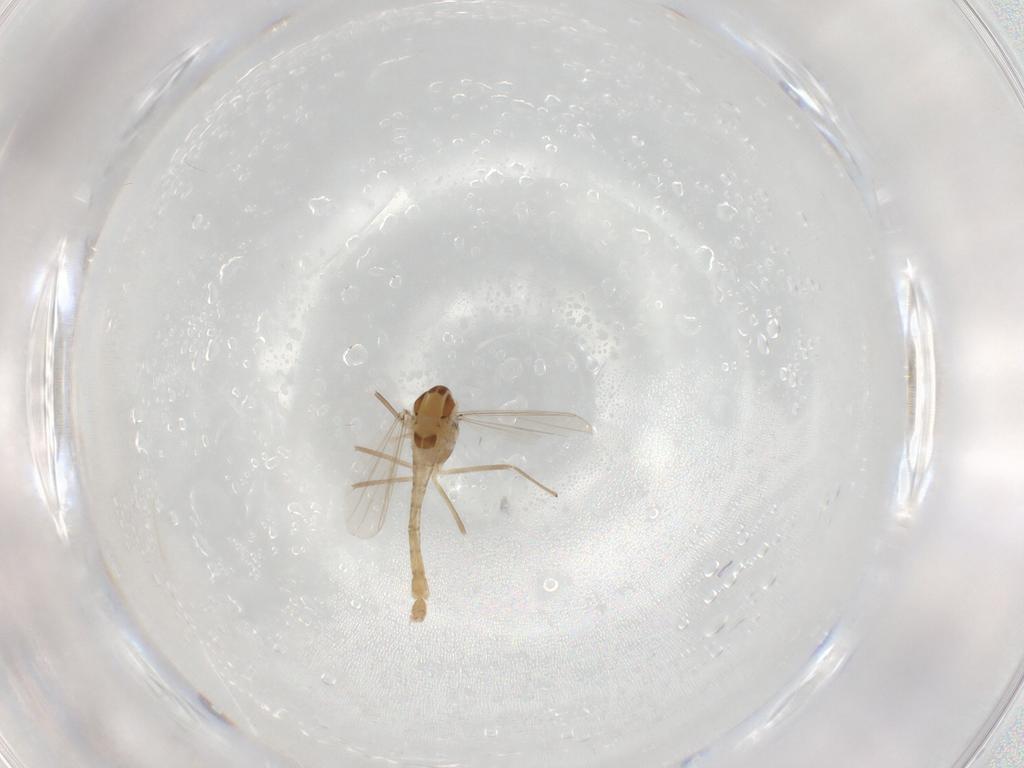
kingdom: Animalia
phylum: Arthropoda
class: Insecta
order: Diptera
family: Chironomidae
